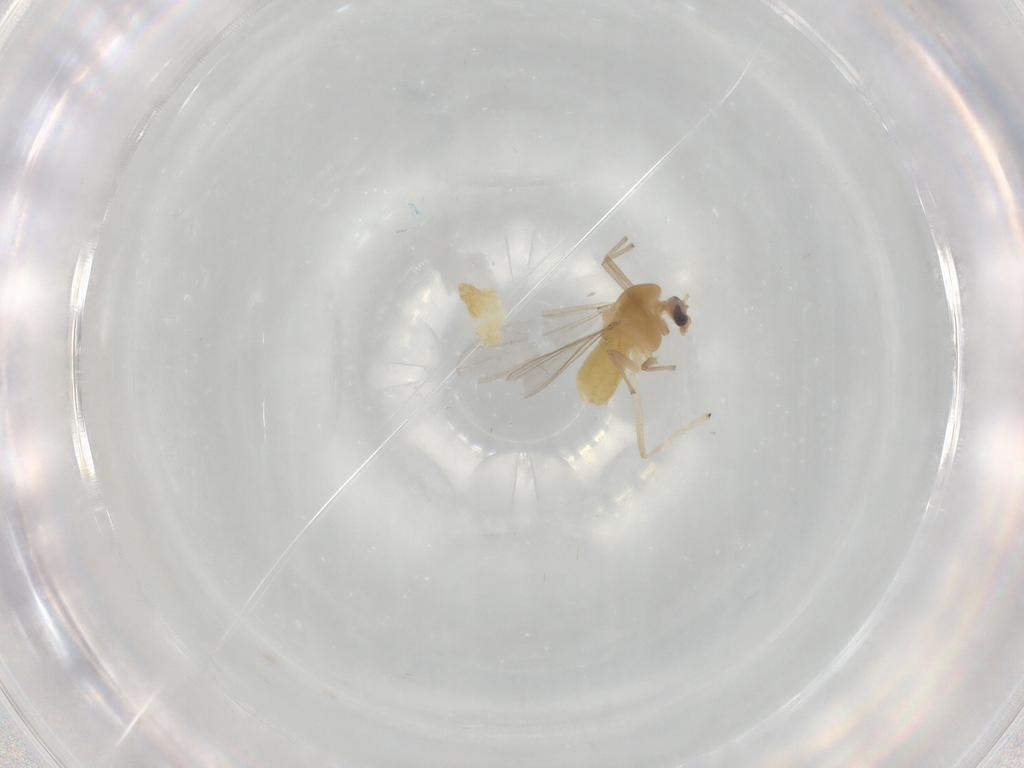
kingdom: Animalia
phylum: Arthropoda
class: Insecta
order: Diptera
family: Chironomidae
